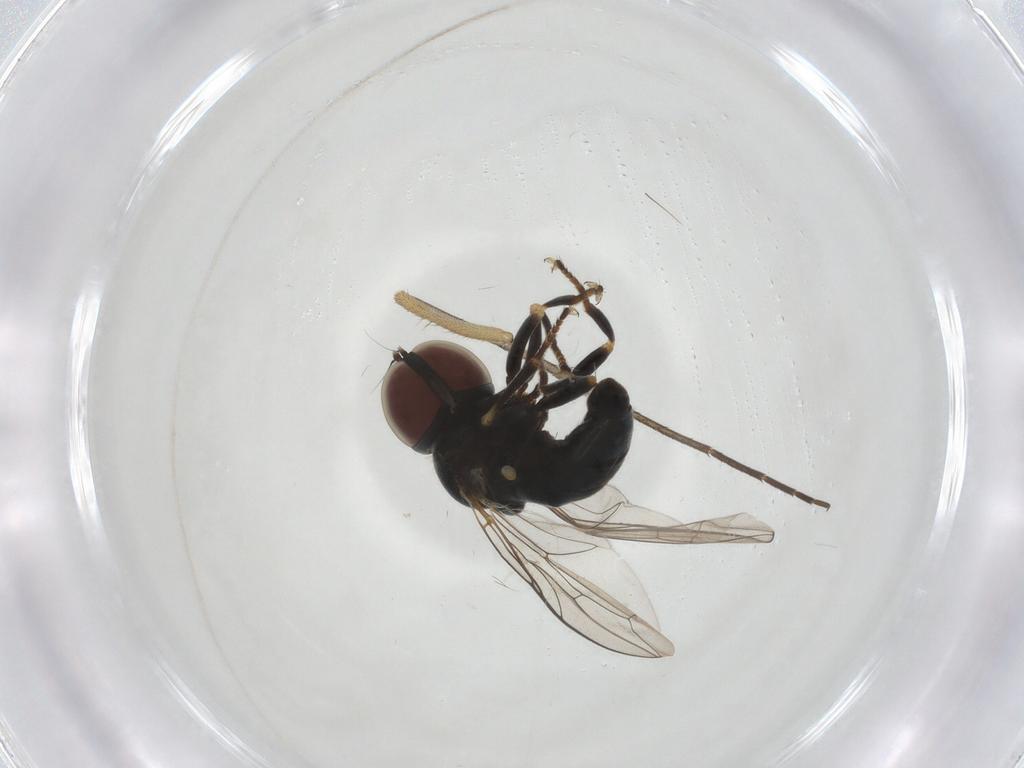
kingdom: Animalia
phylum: Arthropoda
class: Insecta
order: Diptera
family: Pipunculidae
